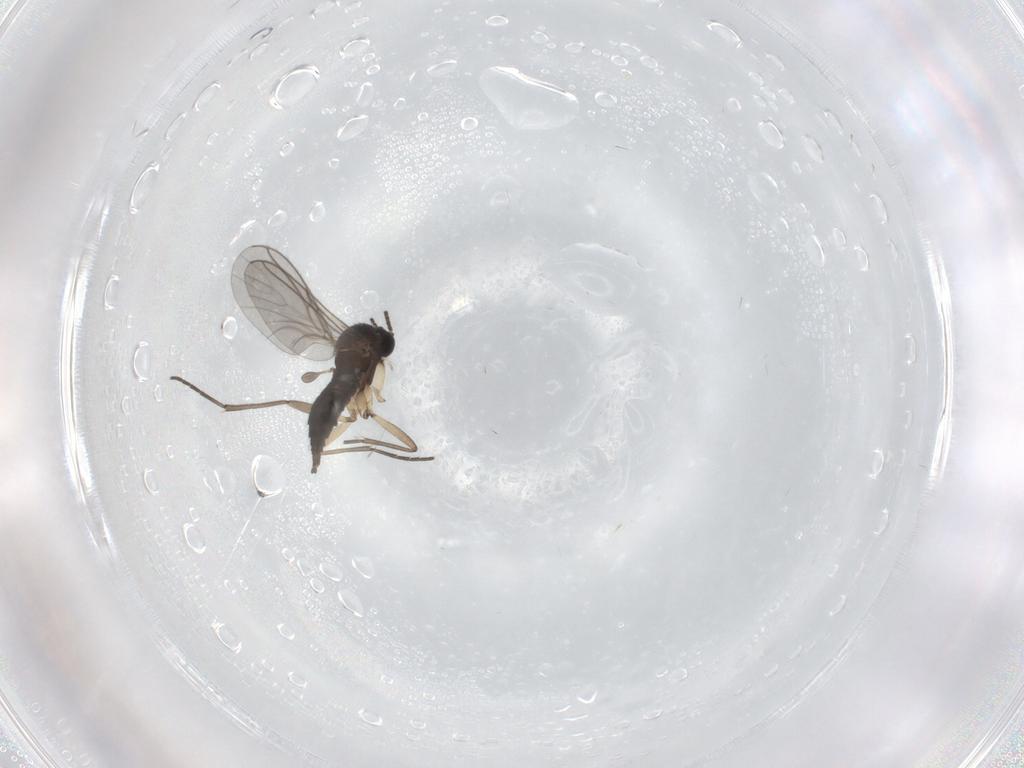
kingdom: Animalia
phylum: Arthropoda
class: Insecta
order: Diptera
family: Sciaridae
